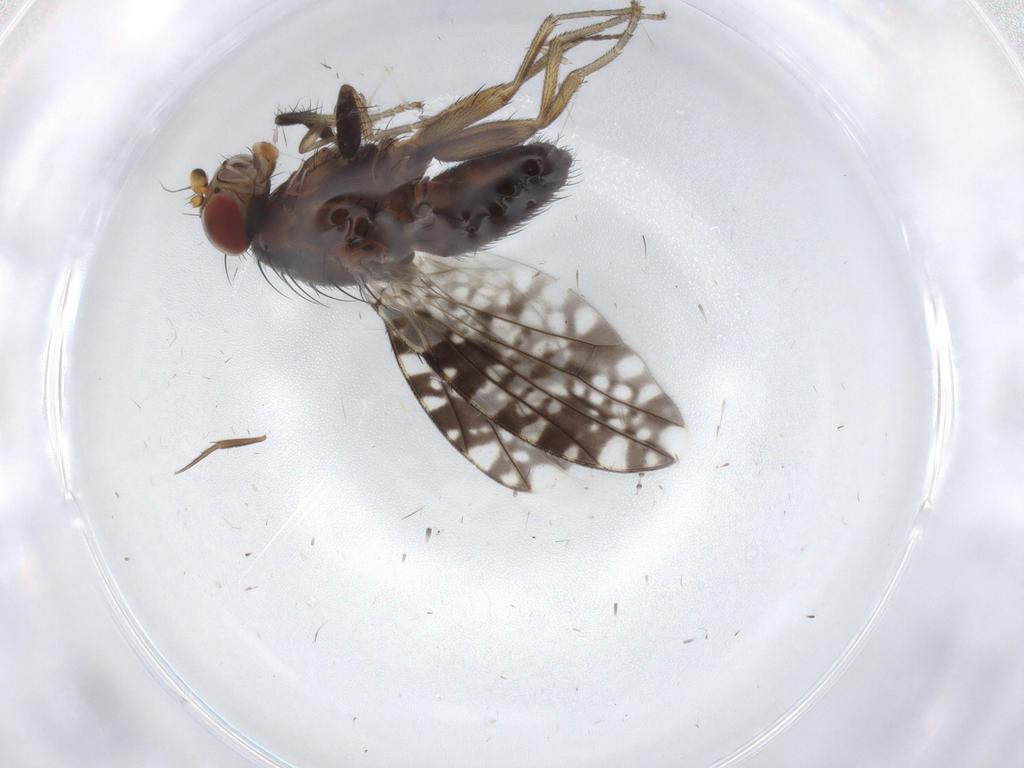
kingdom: Animalia
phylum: Arthropoda
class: Insecta
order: Diptera
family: Tephritidae
